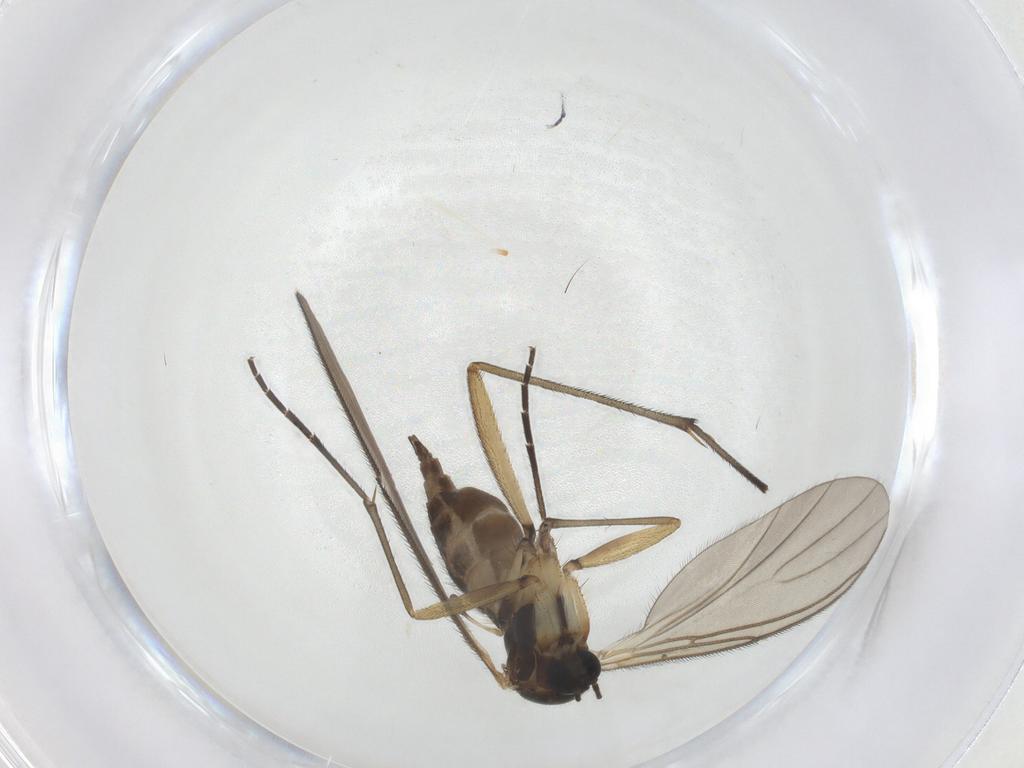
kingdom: Animalia
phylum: Arthropoda
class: Insecta
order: Diptera
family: Sciaridae
